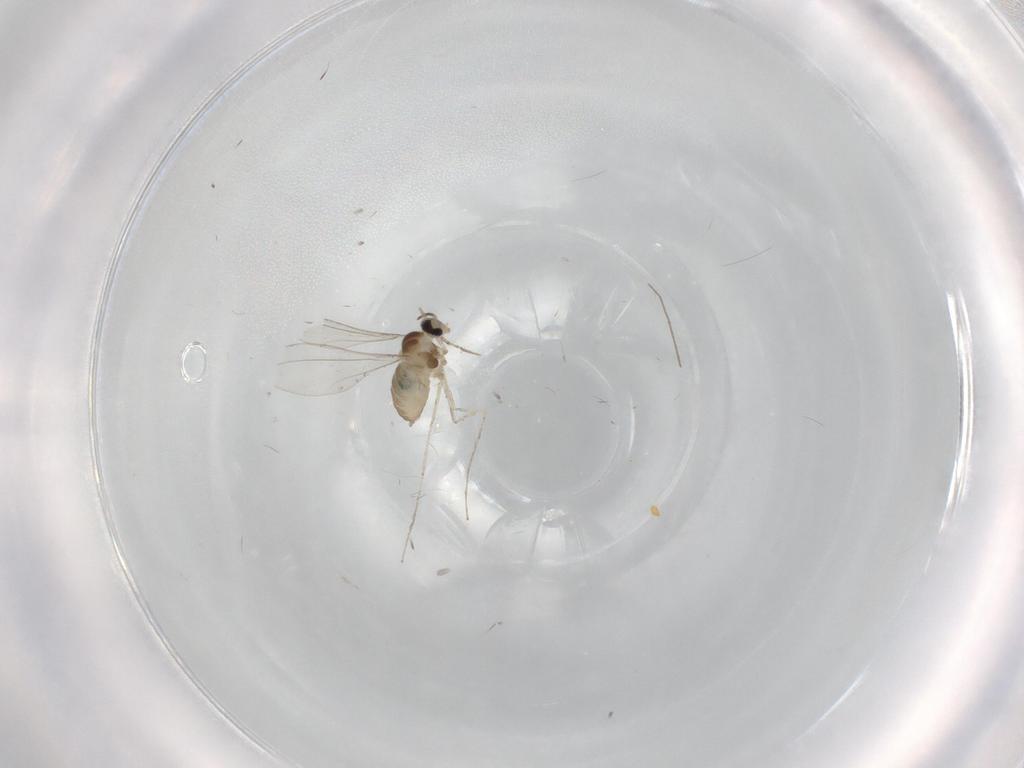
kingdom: Animalia
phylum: Arthropoda
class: Insecta
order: Diptera
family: Cecidomyiidae
